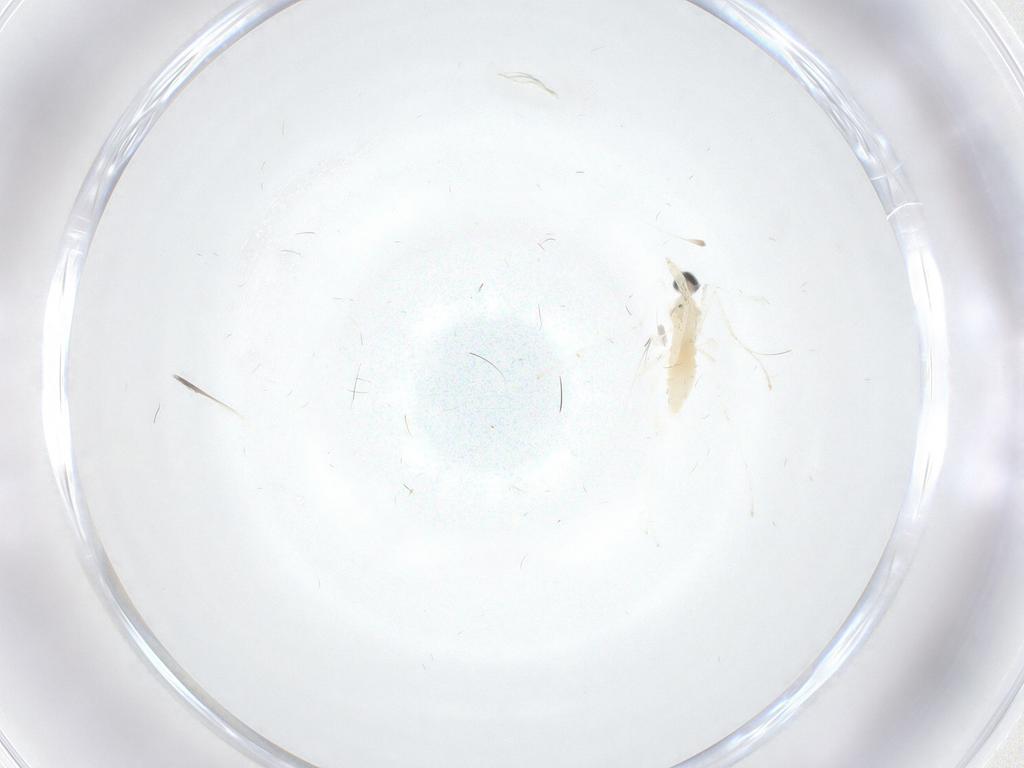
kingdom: Animalia
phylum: Arthropoda
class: Insecta
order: Diptera
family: Cecidomyiidae
